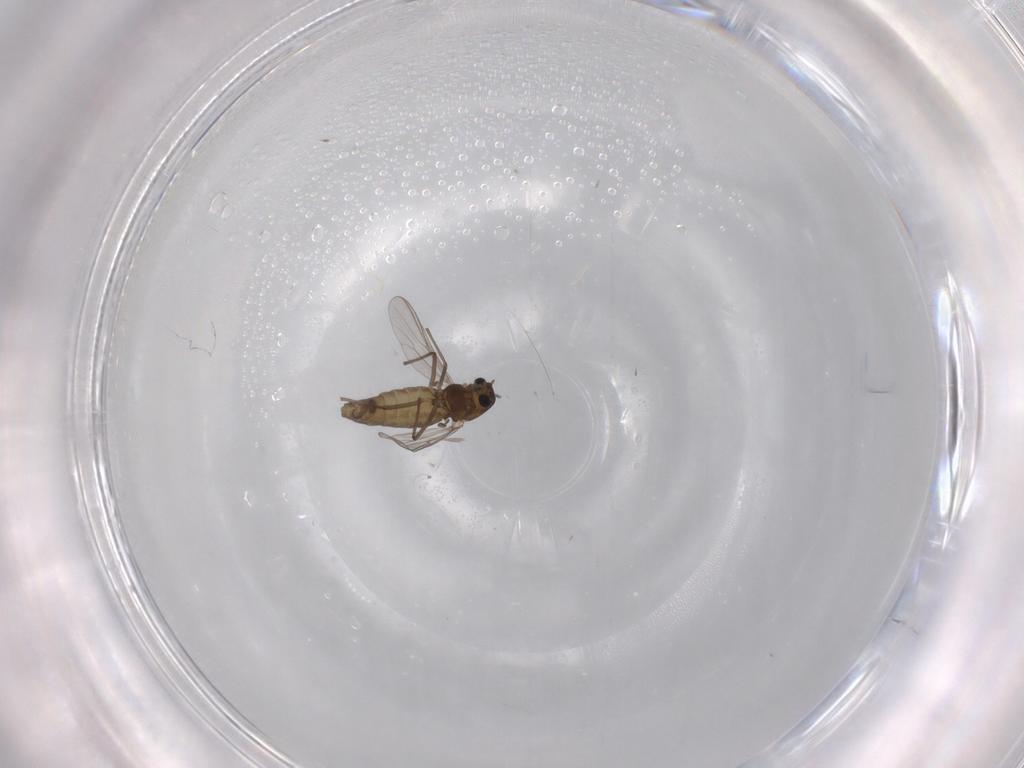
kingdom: Animalia
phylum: Arthropoda
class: Insecta
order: Diptera
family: Chironomidae
